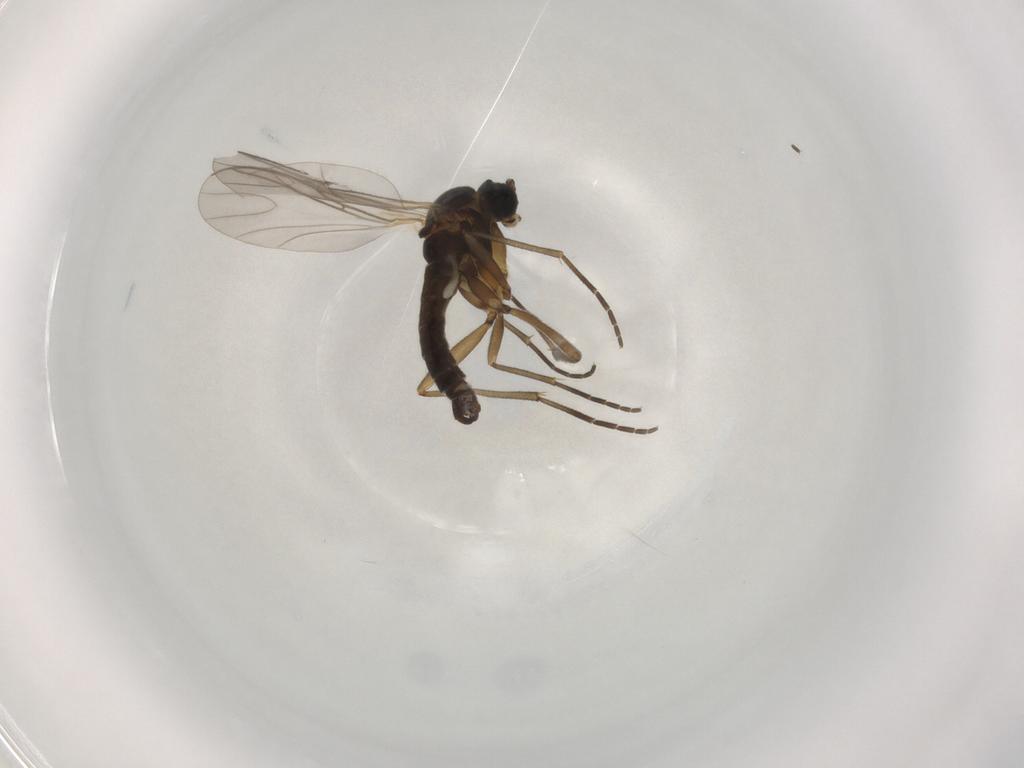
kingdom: Animalia
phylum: Arthropoda
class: Insecta
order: Diptera
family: Sciaridae
